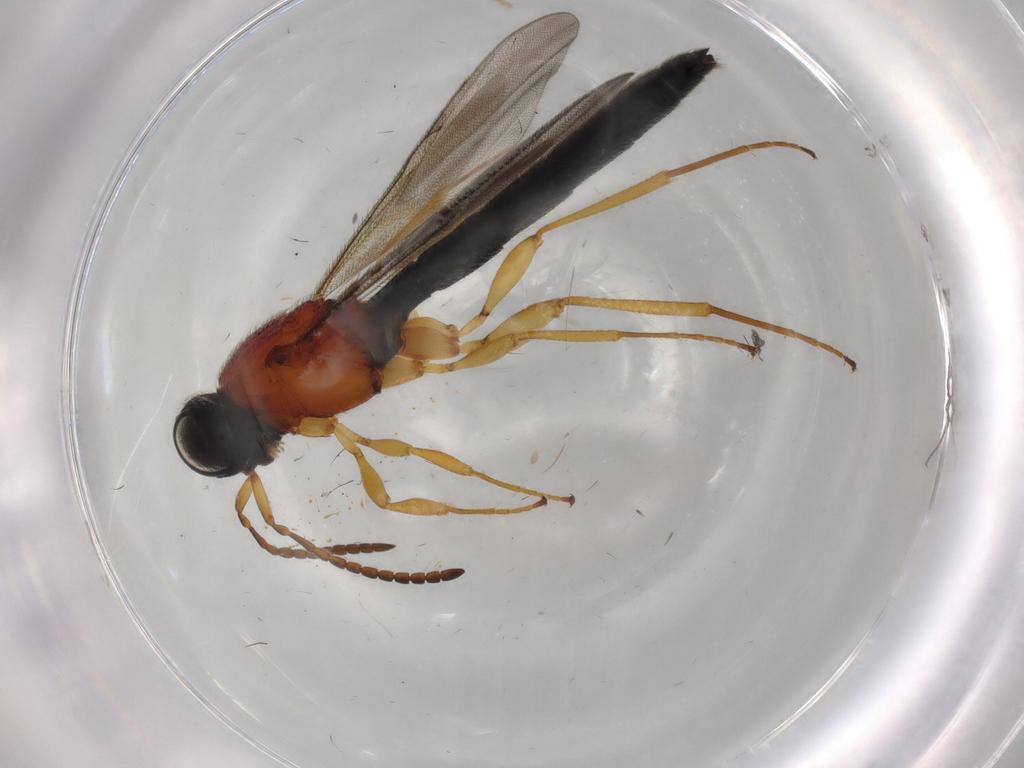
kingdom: Animalia
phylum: Arthropoda
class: Insecta
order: Hymenoptera
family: Scelionidae
